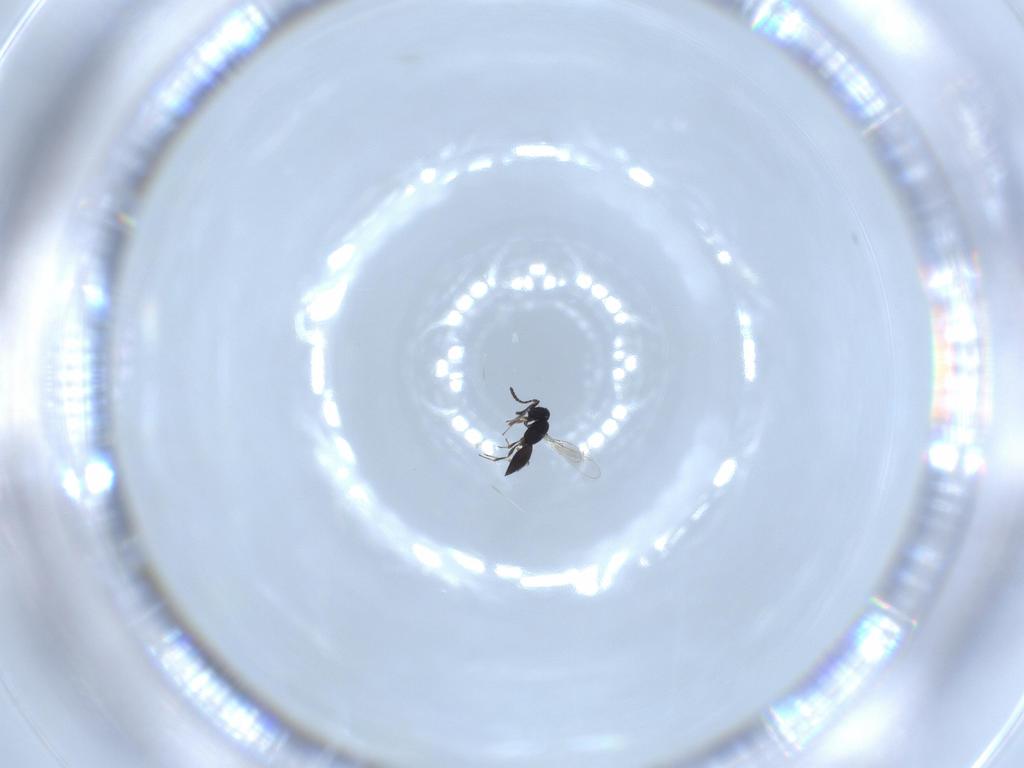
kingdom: Animalia
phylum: Arthropoda
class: Insecta
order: Hymenoptera
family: Scelionidae
